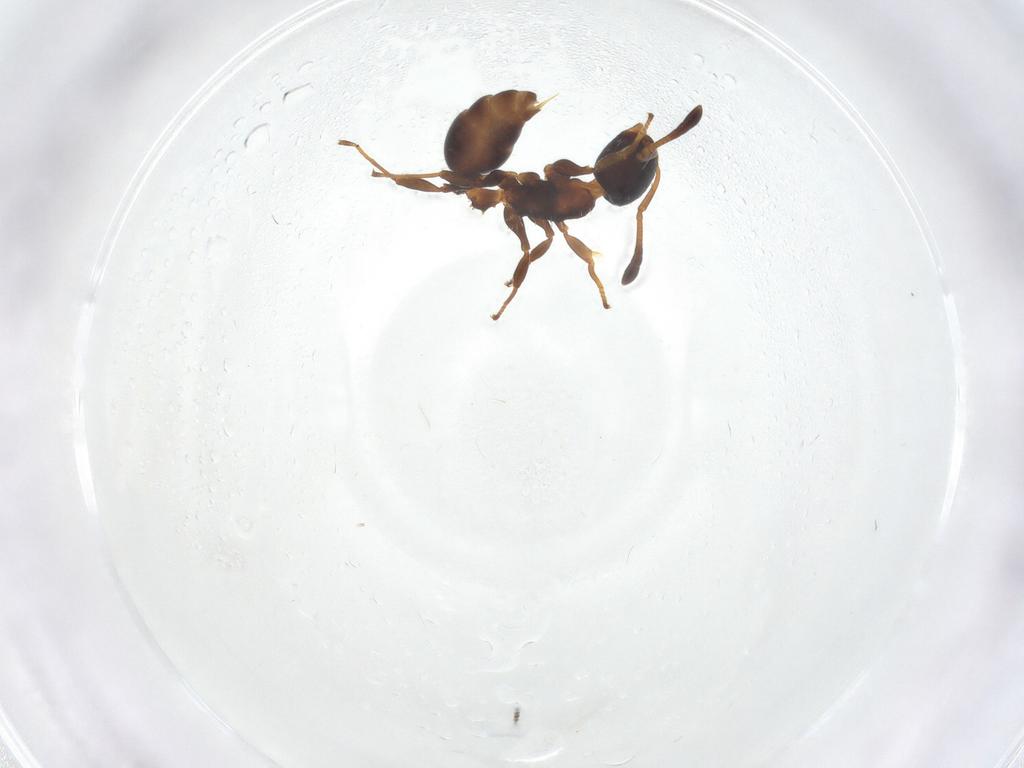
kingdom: Animalia
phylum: Arthropoda
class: Insecta
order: Hymenoptera
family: Formicidae
